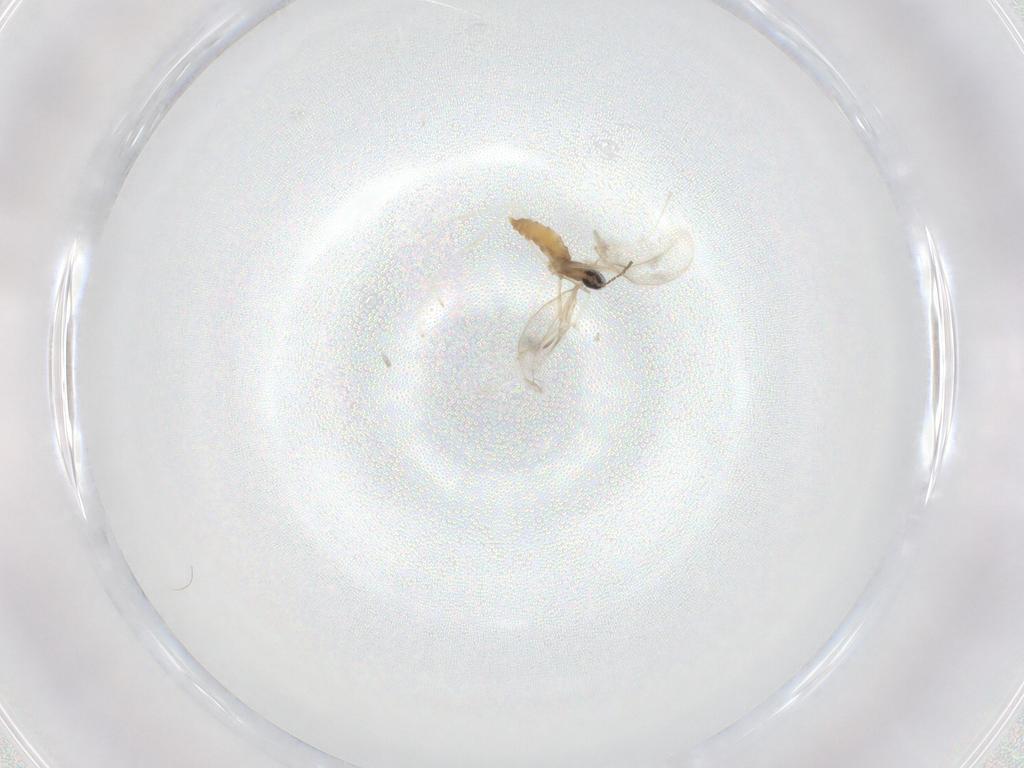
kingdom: Animalia
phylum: Arthropoda
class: Insecta
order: Diptera
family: Cecidomyiidae
